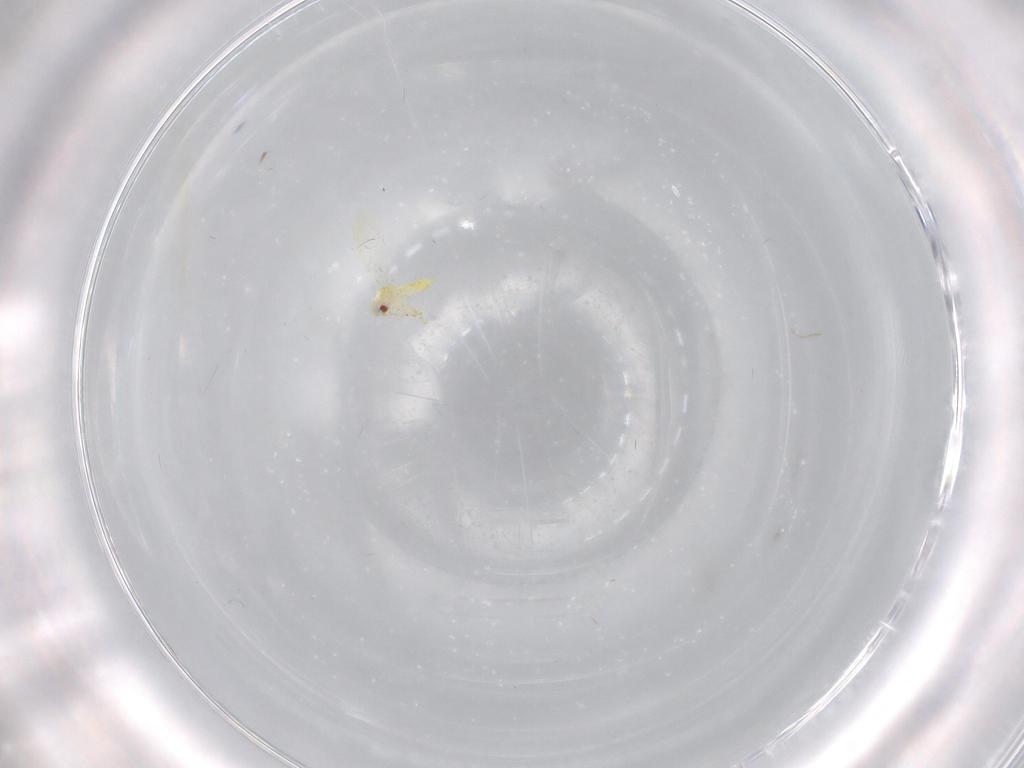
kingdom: Animalia
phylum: Arthropoda
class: Insecta
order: Hemiptera
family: Aleyrodidae
